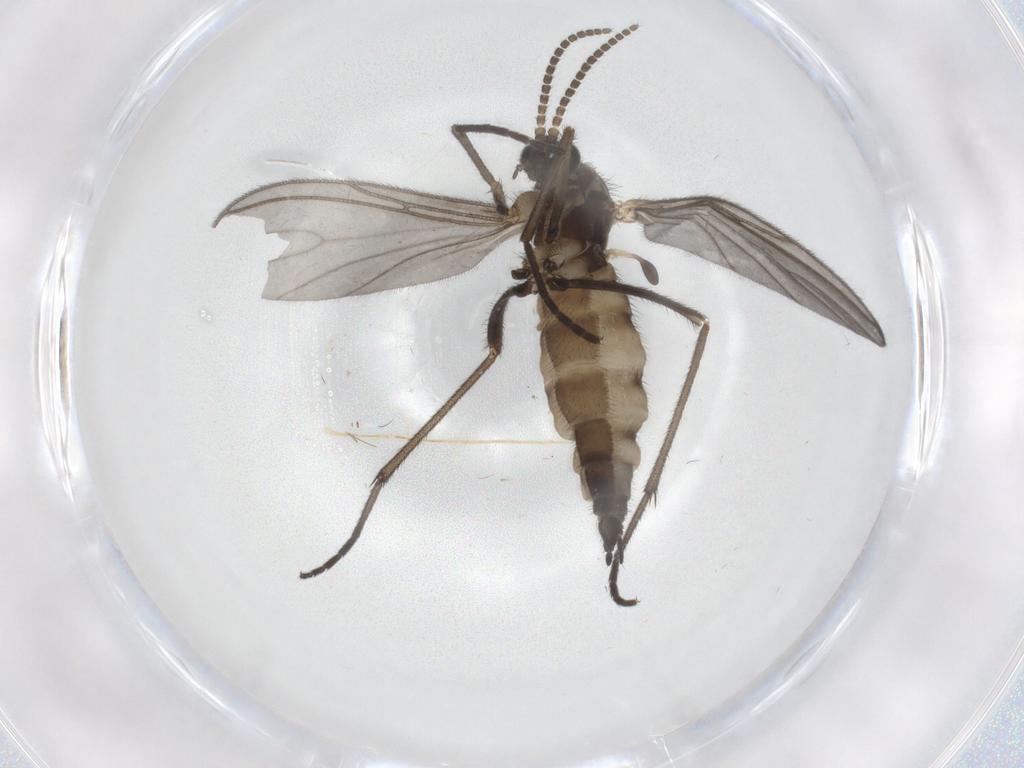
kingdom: Animalia
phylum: Arthropoda
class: Insecta
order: Diptera
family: Sciaridae
